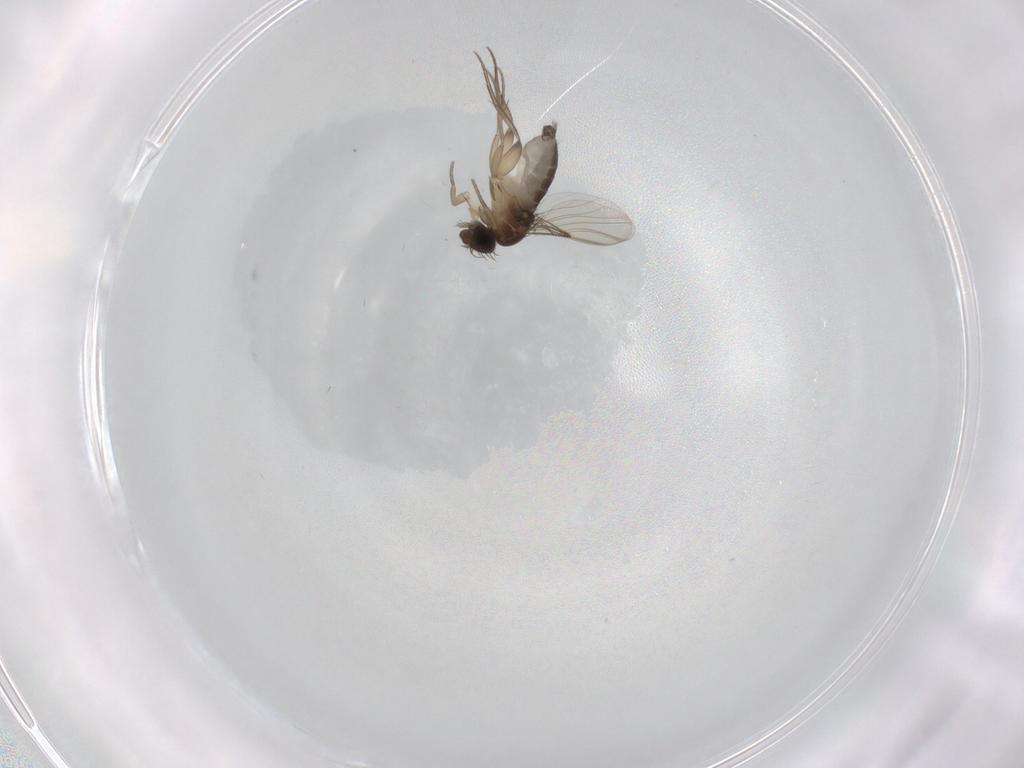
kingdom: Animalia
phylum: Arthropoda
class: Insecta
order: Diptera
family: Phoridae
